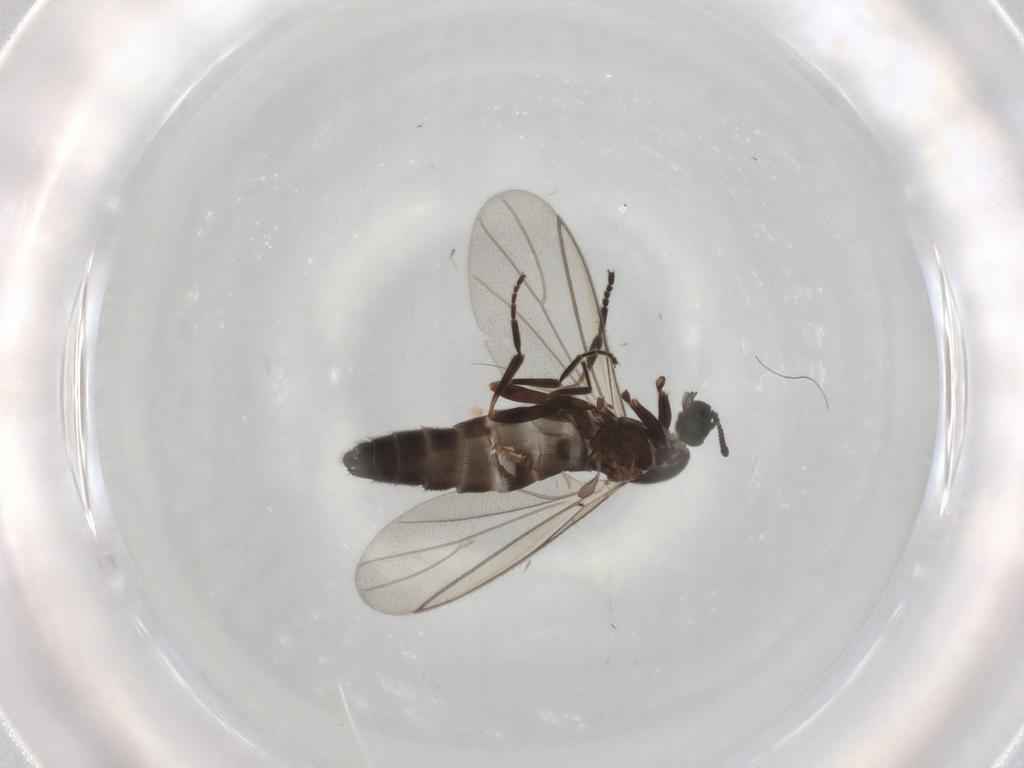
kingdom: Animalia
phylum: Arthropoda
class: Insecta
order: Diptera
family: Scatopsidae
